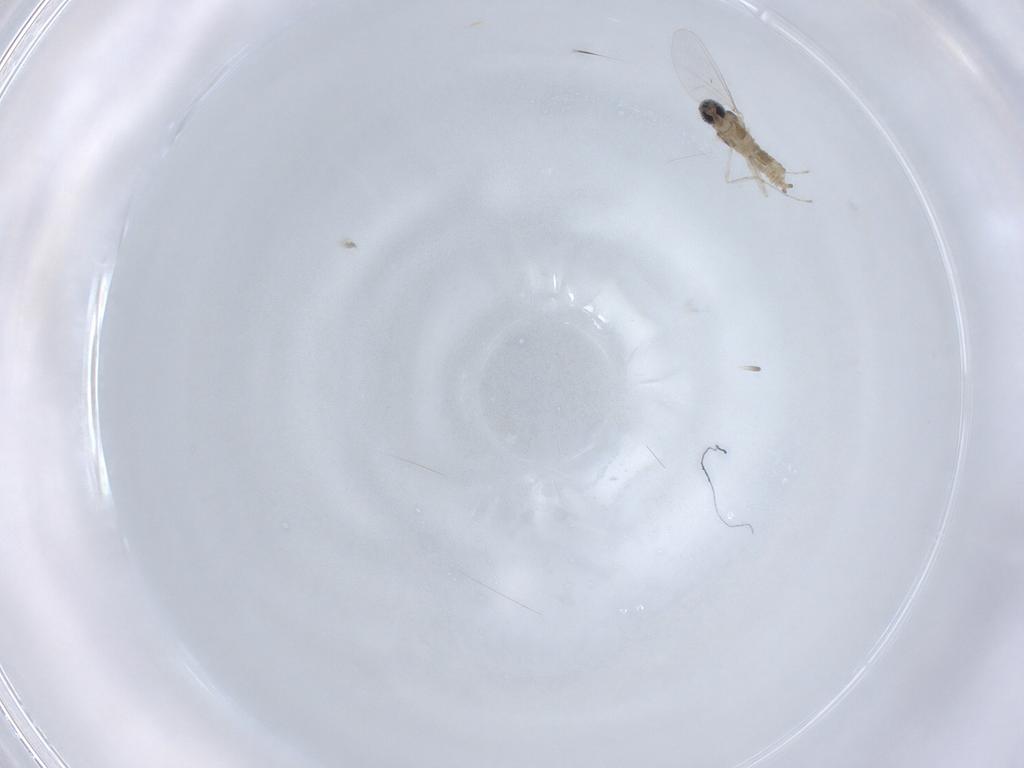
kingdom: Animalia
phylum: Arthropoda
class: Insecta
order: Diptera
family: Cecidomyiidae
